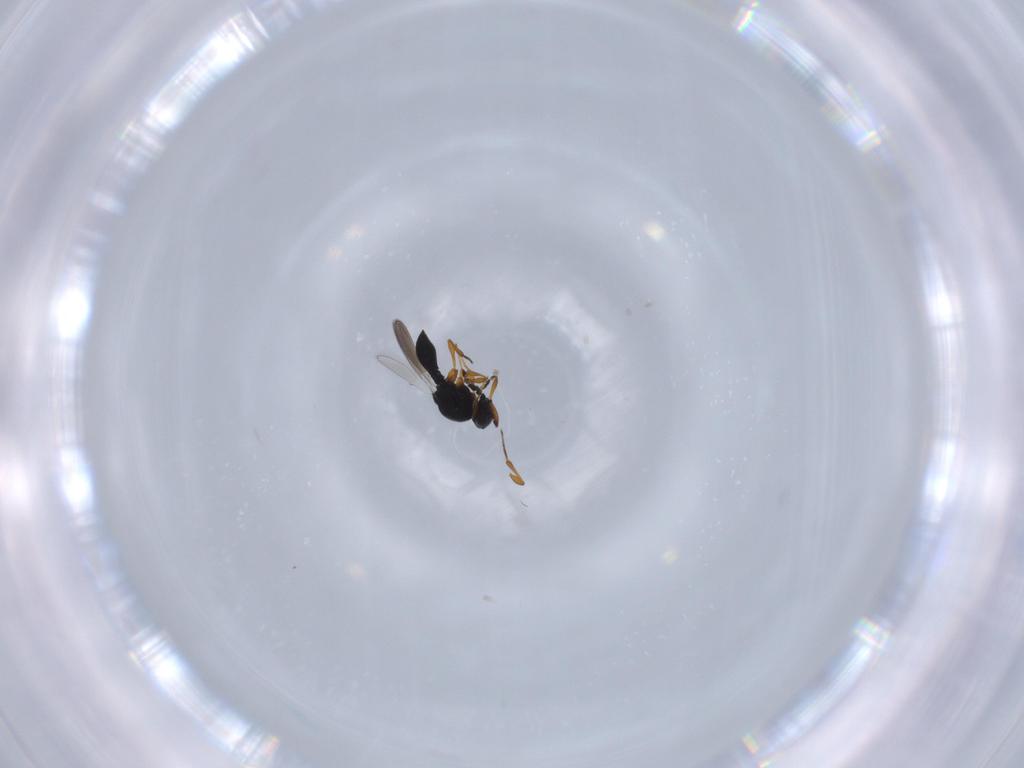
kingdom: Animalia
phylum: Arthropoda
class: Insecta
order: Hymenoptera
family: Platygastridae
